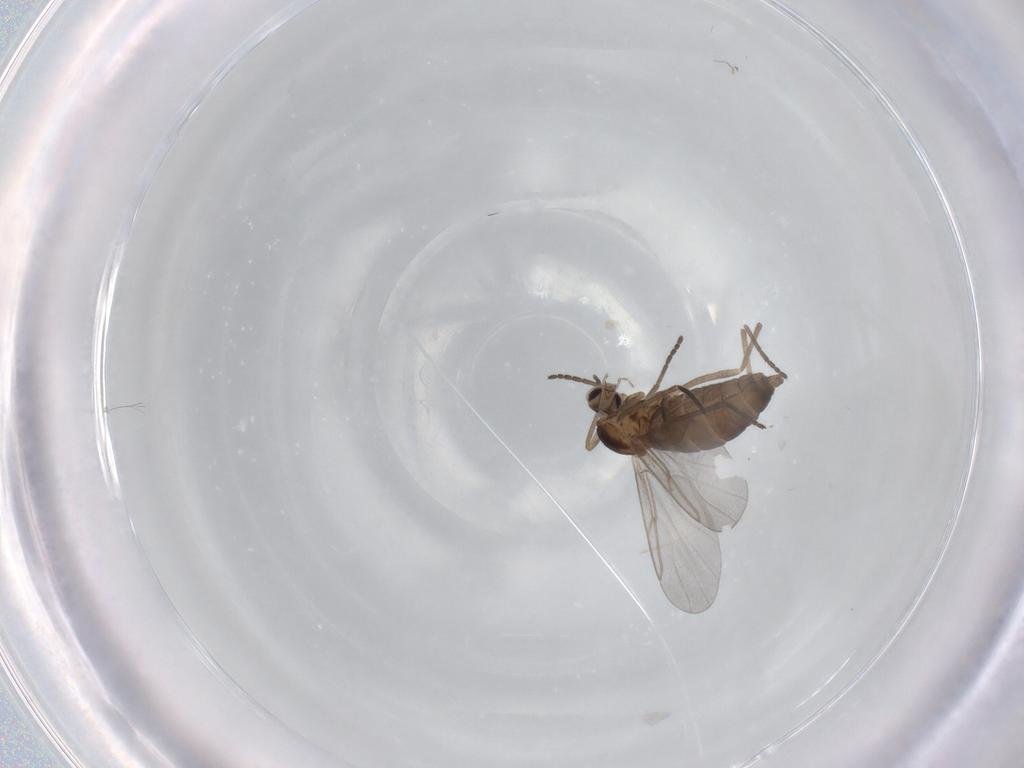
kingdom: Animalia
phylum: Arthropoda
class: Insecta
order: Diptera
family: Cecidomyiidae
